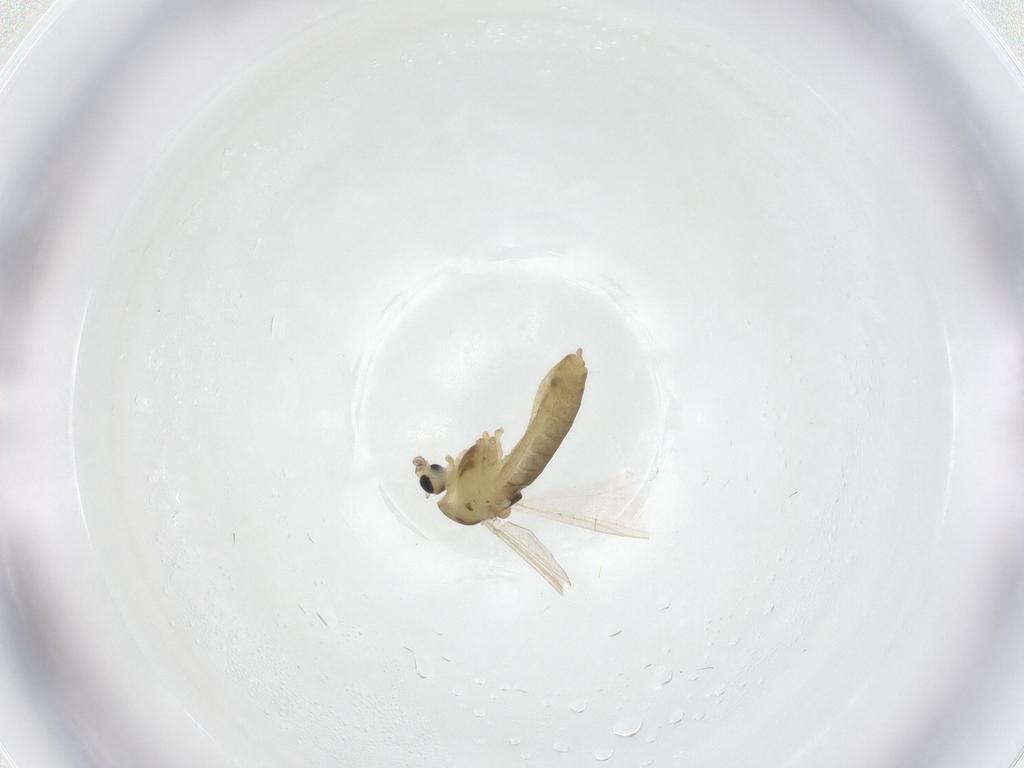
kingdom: Animalia
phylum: Arthropoda
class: Insecta
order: Diptera
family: Chironomidae
